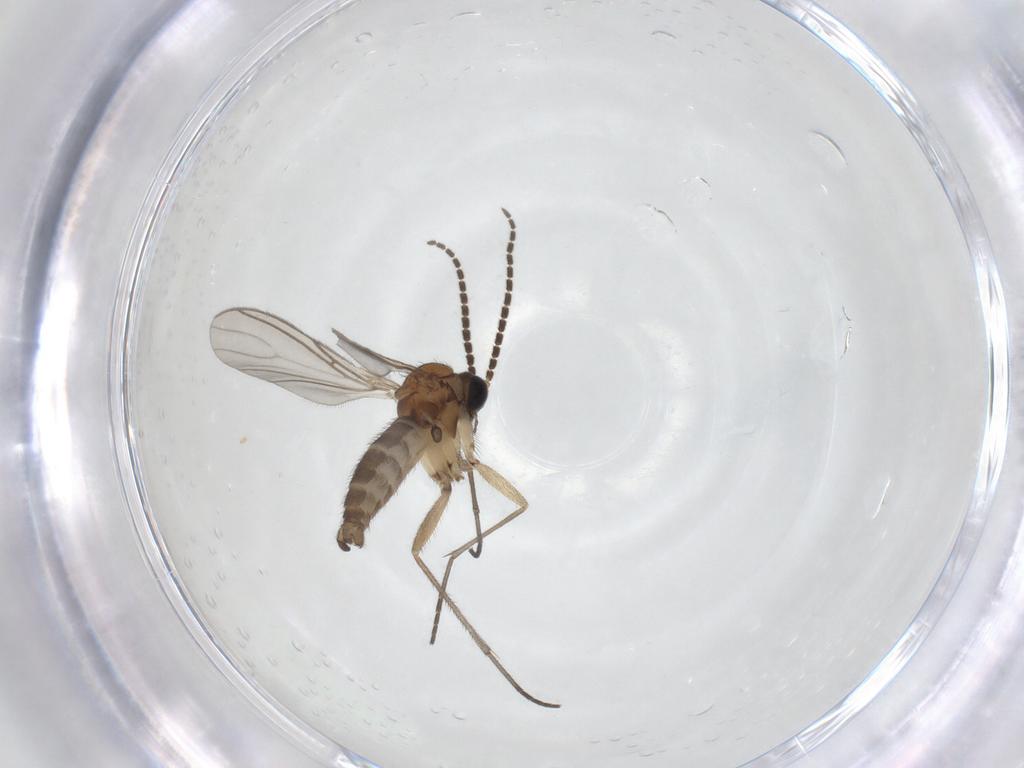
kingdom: Animalia
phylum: Arthropoda
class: Insecta
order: Diptera
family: Sciaridae
